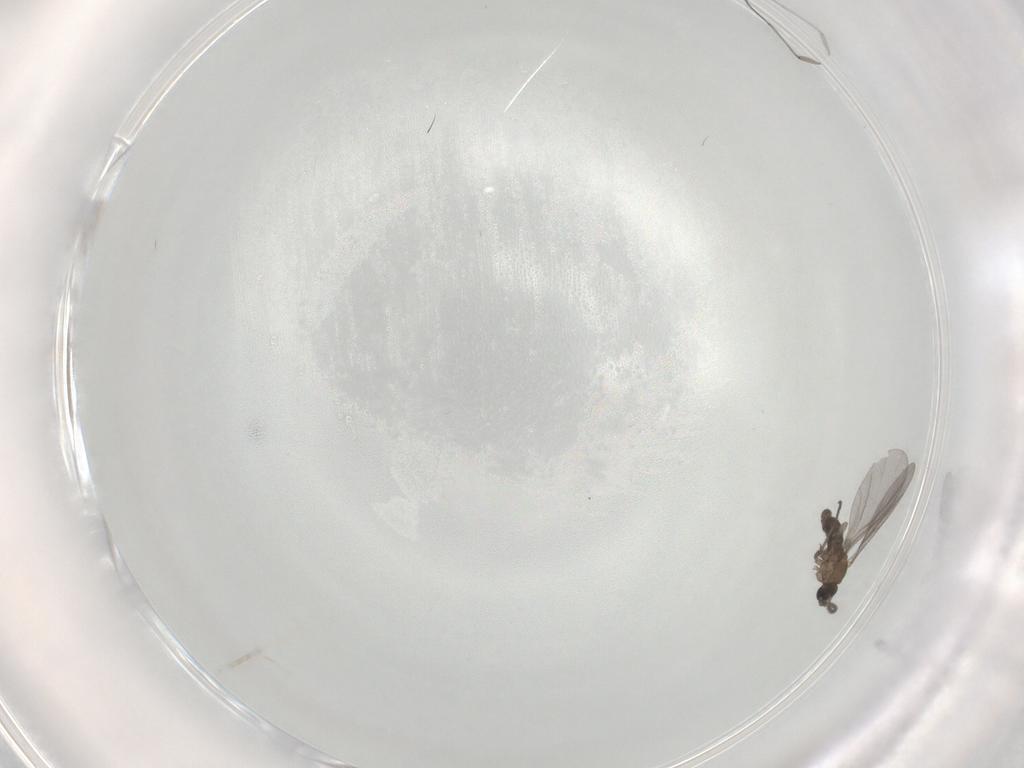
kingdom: Animalia
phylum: Arthropoda
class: Insecta
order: Diptera
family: Sciaridae
